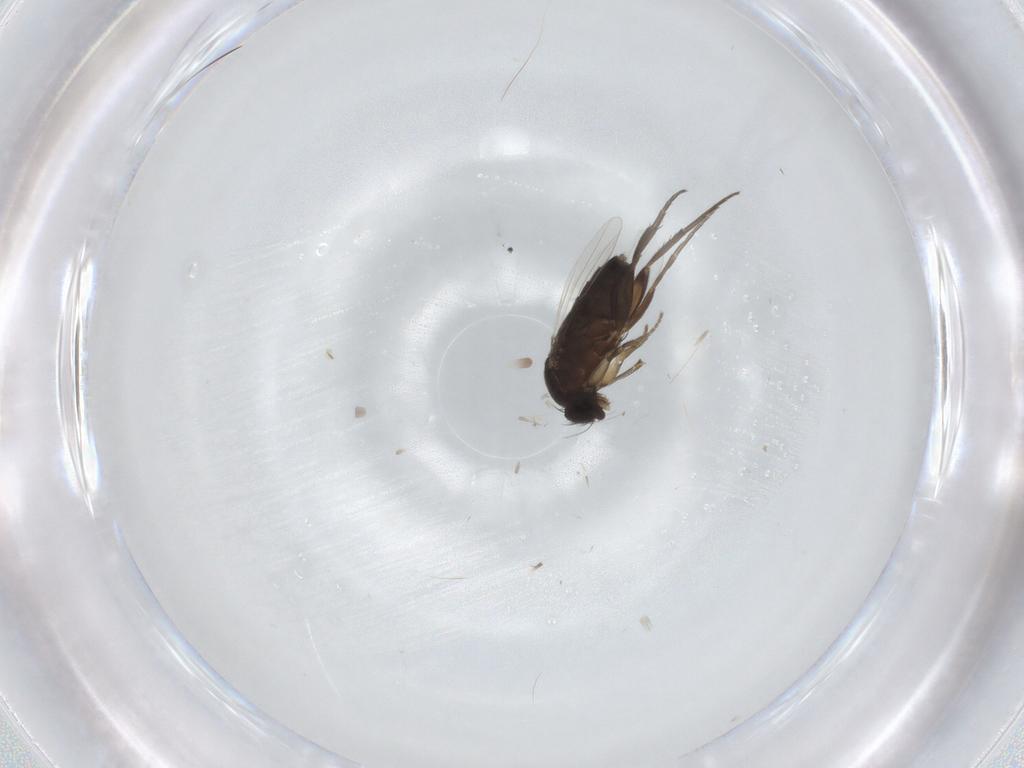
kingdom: Animalia
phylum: Arthropoda
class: Insecta
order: Diptera
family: Phoridae
